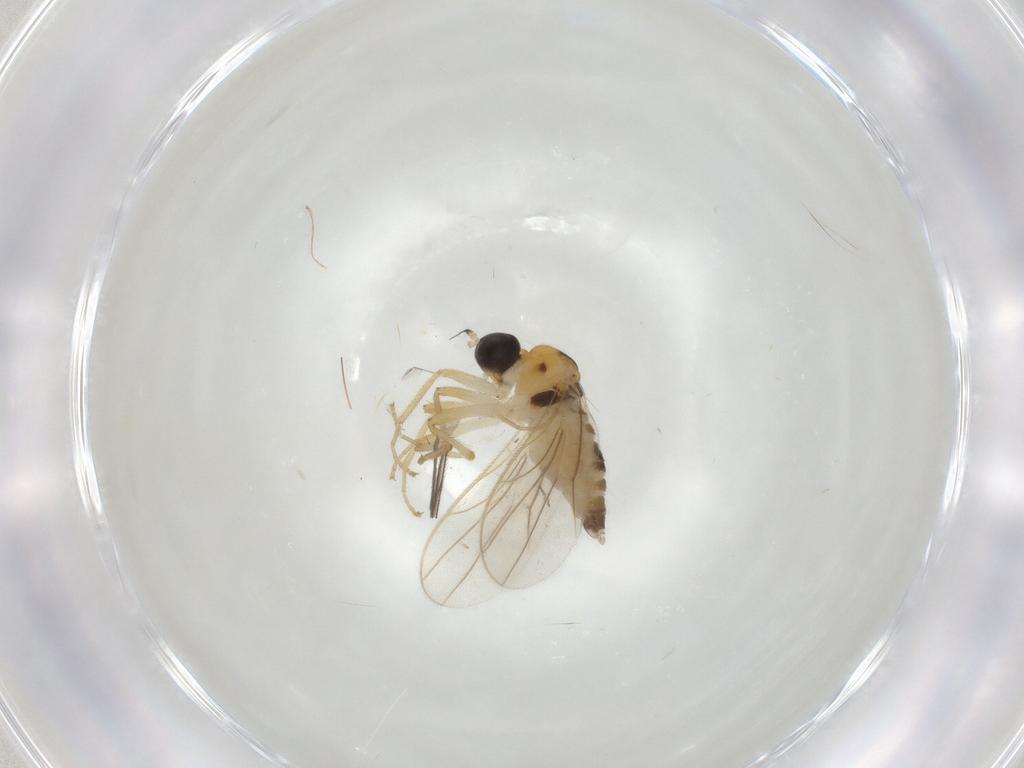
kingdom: Animalia
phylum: Arthropoda
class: Insecta
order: Diptera
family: Hybotidae
